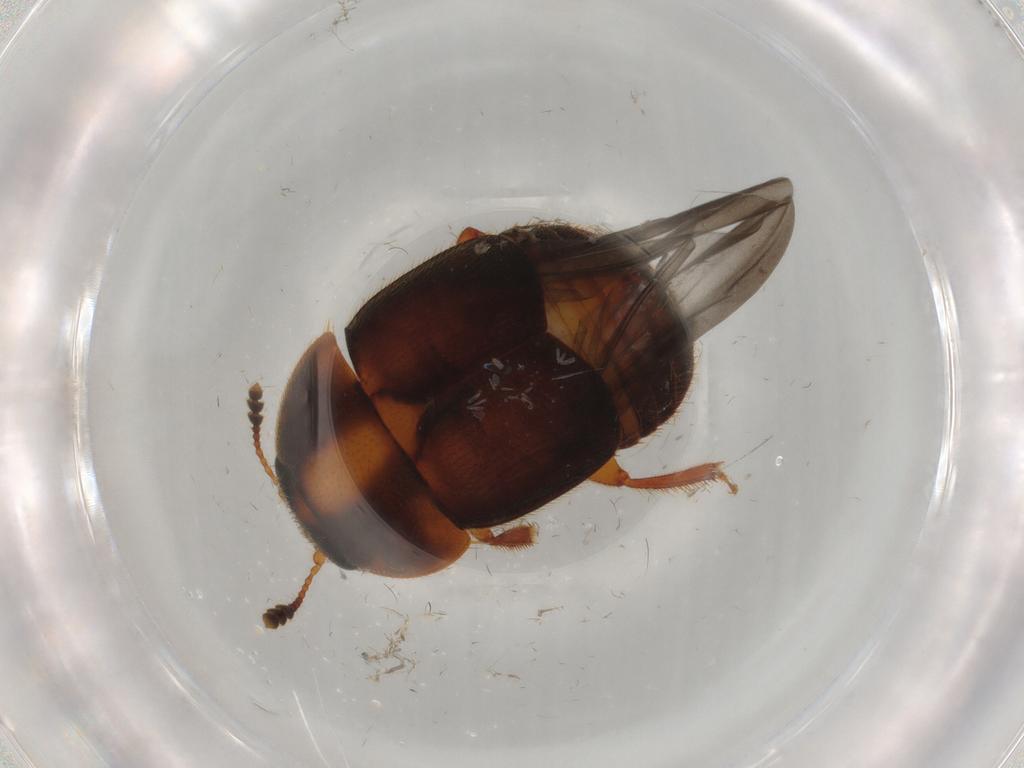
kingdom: Animalia
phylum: Arthropoda
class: Insecta
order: Coleoptera
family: Nitidulidae
